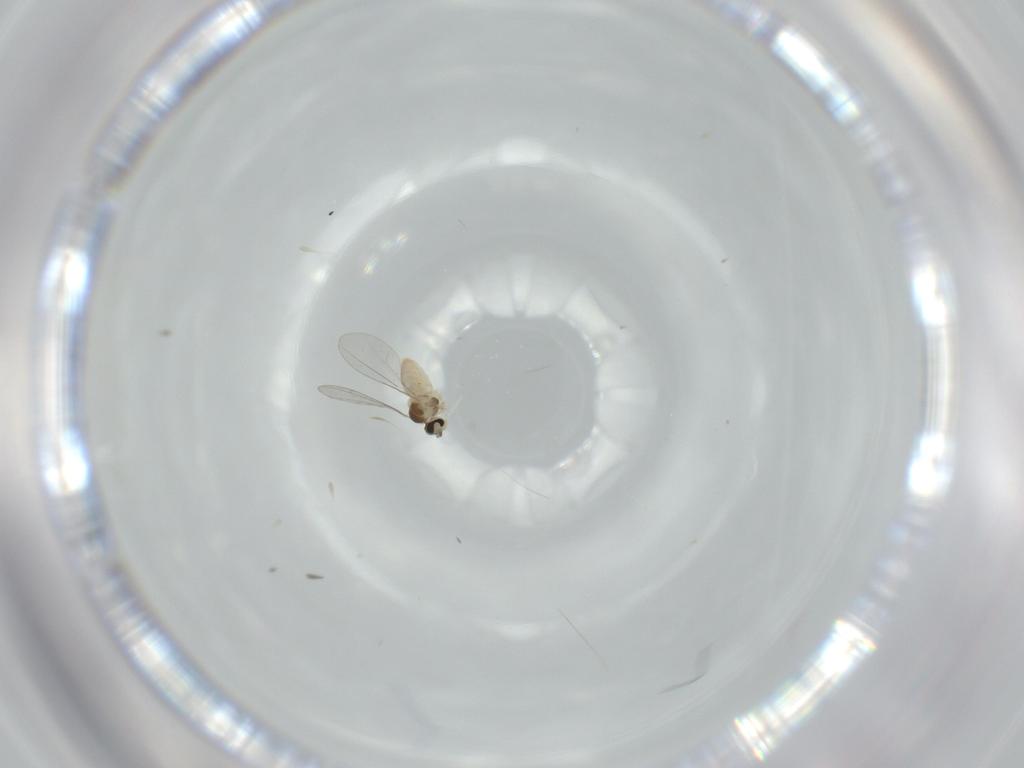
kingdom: Animalia
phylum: Arthropoda
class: Insecta
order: Diptera
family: Cecidomyiidae
